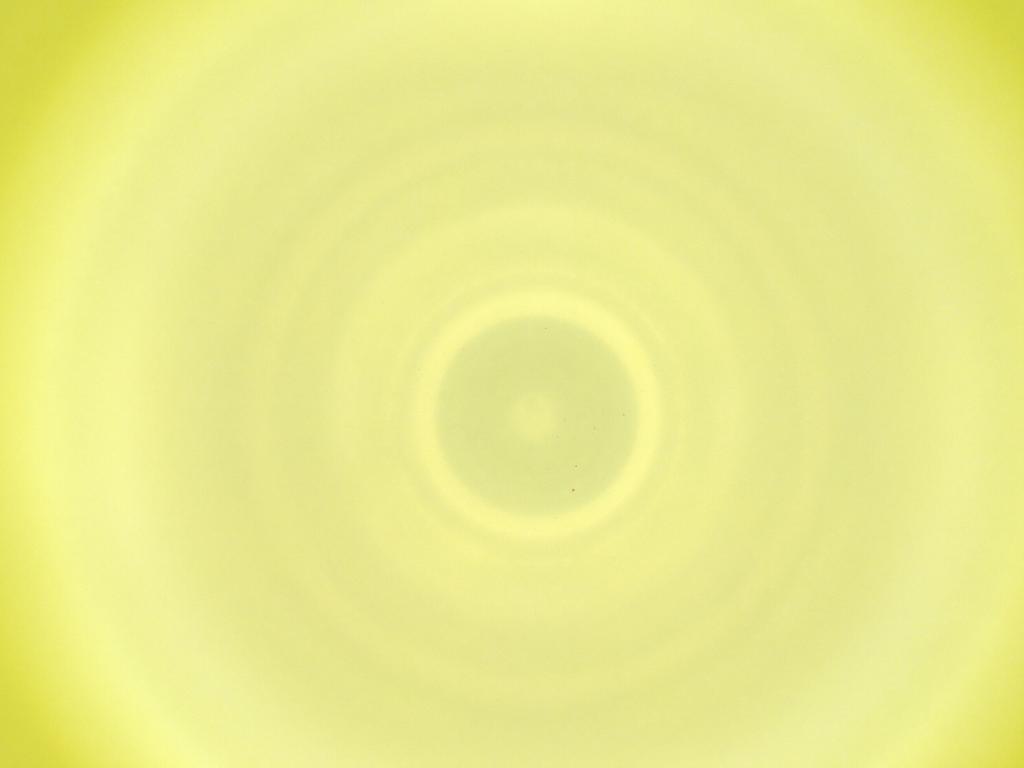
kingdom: Animalia
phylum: Arthropoda
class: Insecta
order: Diptera
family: Cecidomyiidae
